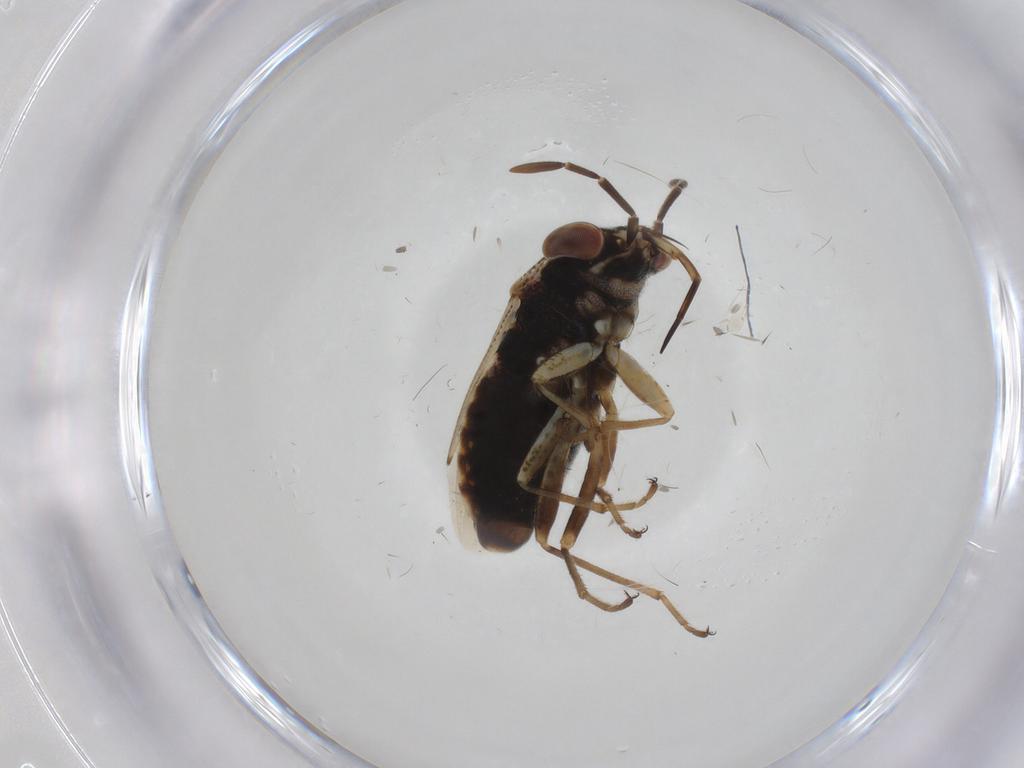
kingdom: Animalia
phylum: Arthropoda
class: Insecta
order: Hemiptera
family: Geocoridae
